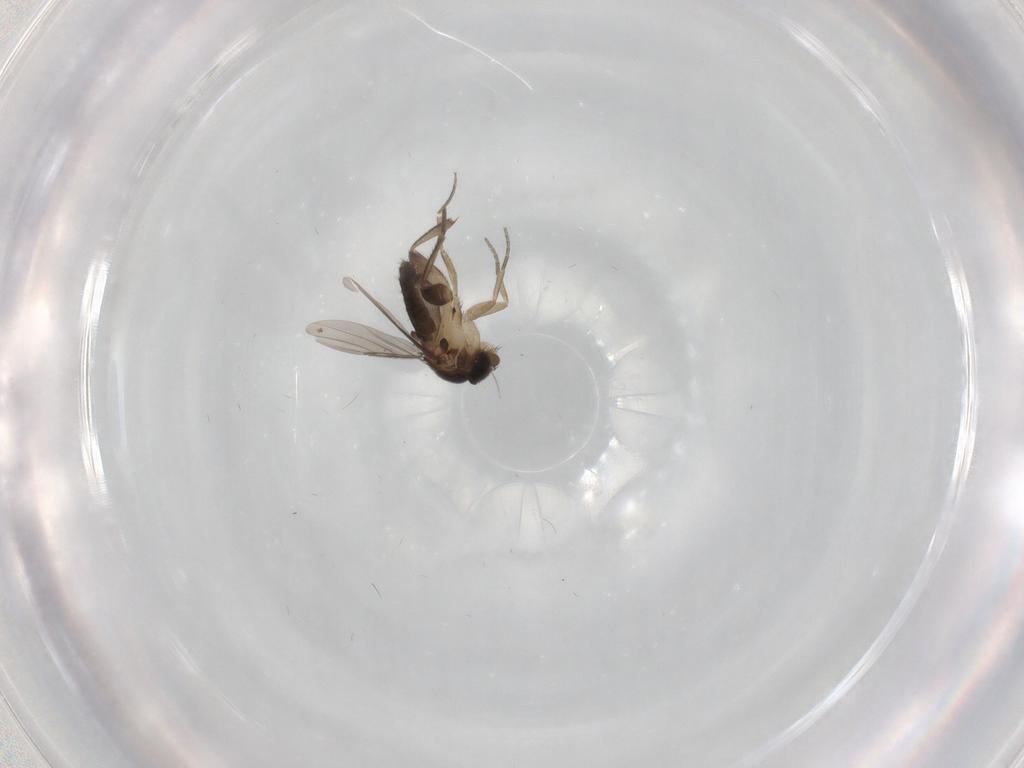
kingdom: Animalia
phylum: Arthropoda
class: Insecta
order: Diptera
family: Phoridae
